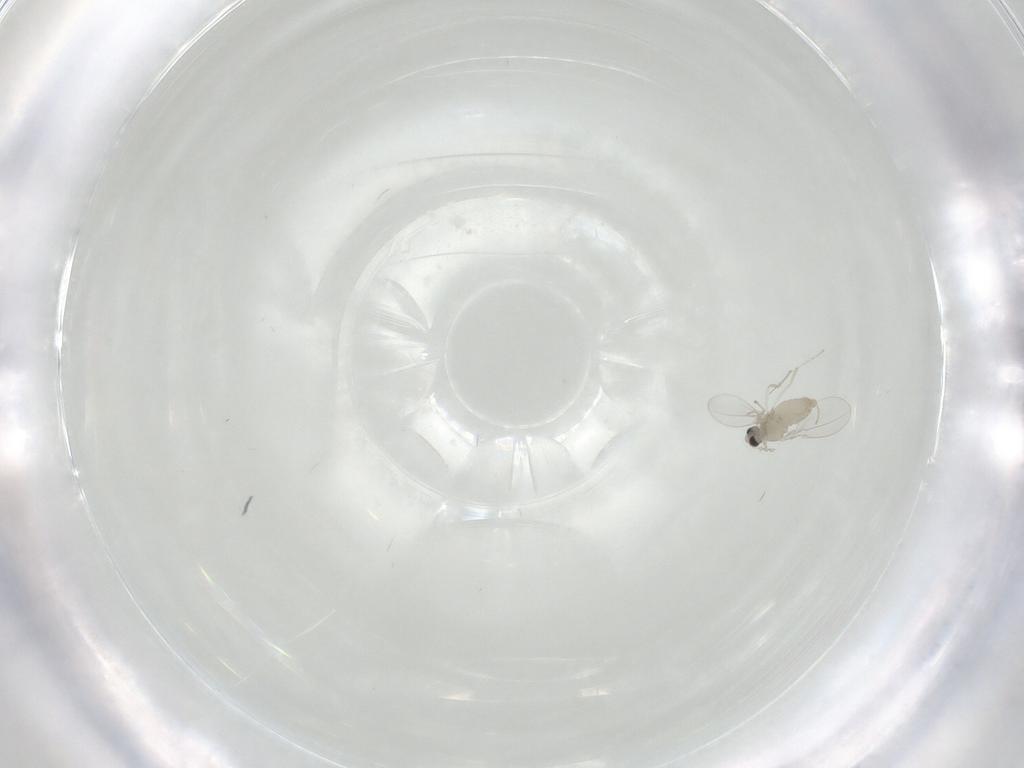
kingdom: Animalia
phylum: Arthropoda
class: Insecta
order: Diptera
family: Cecidomyiidae
